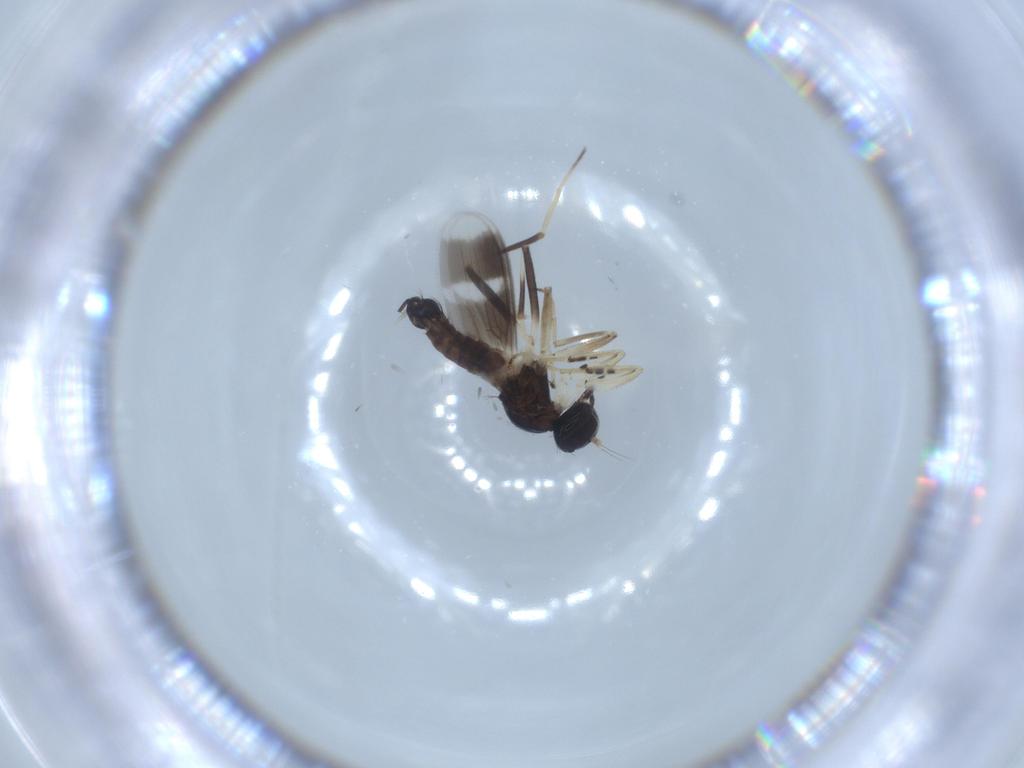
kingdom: Animalia
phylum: Arthropoda
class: Insecta
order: Diptera
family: Hybotidae
